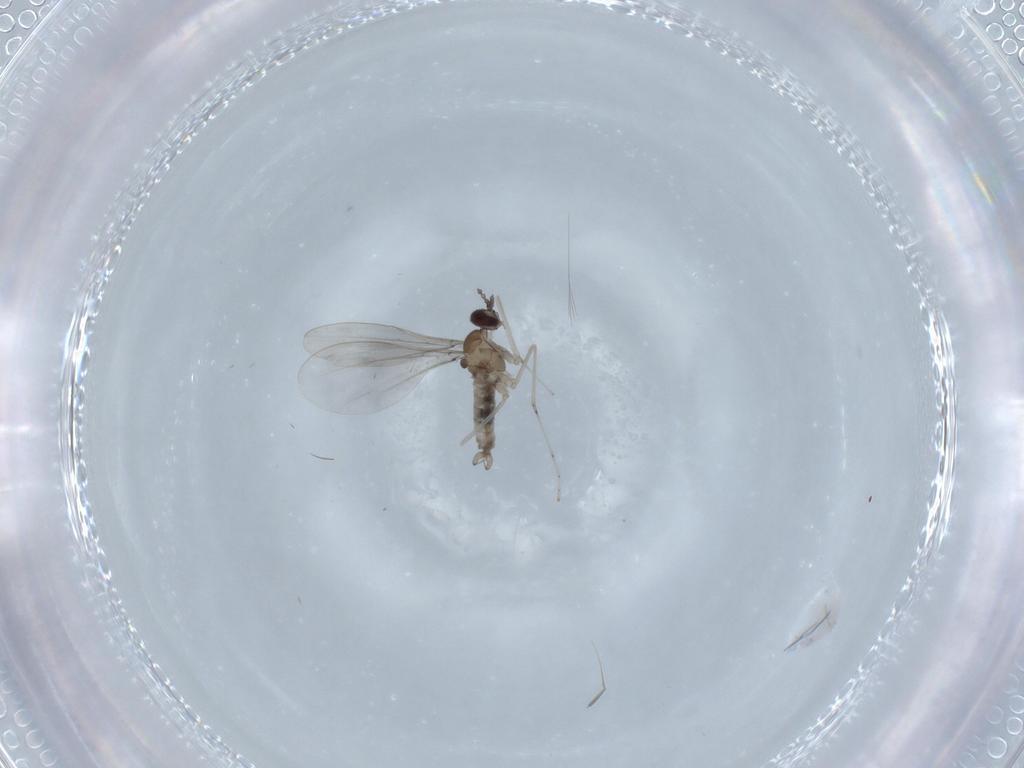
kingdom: Animalia
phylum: Arthropoda
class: Insecta
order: Diptera
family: Cecidomyiidae
